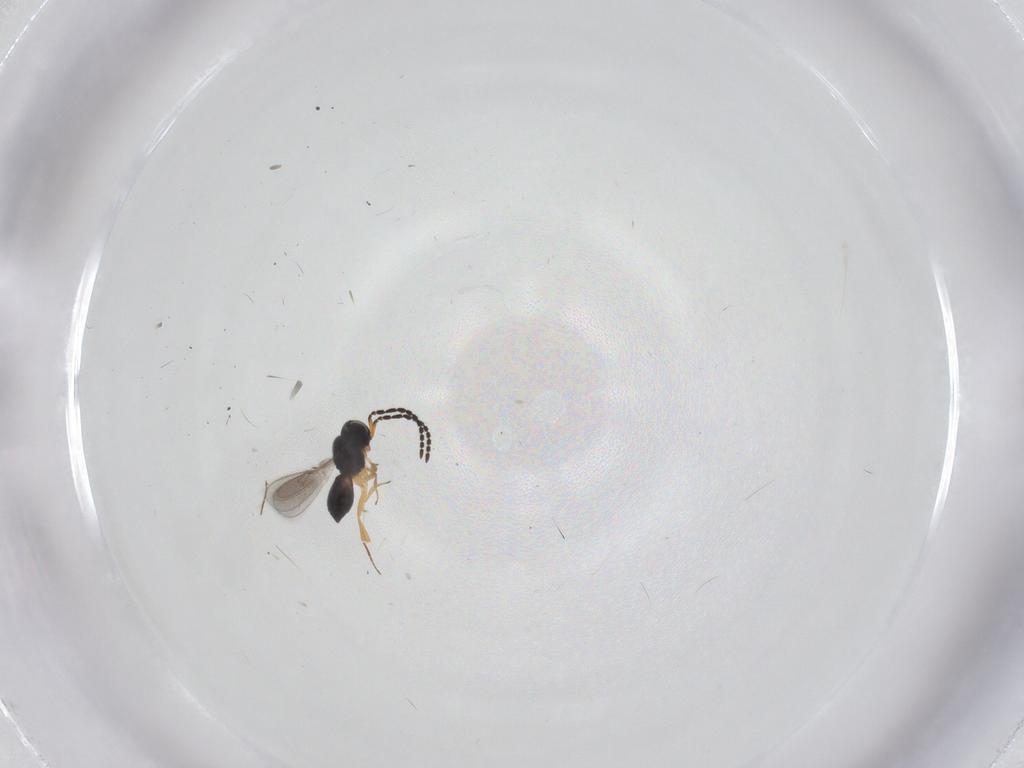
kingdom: Animalia
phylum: Arthropoda
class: Insecta
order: Hymenoptera
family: Scelionidae
